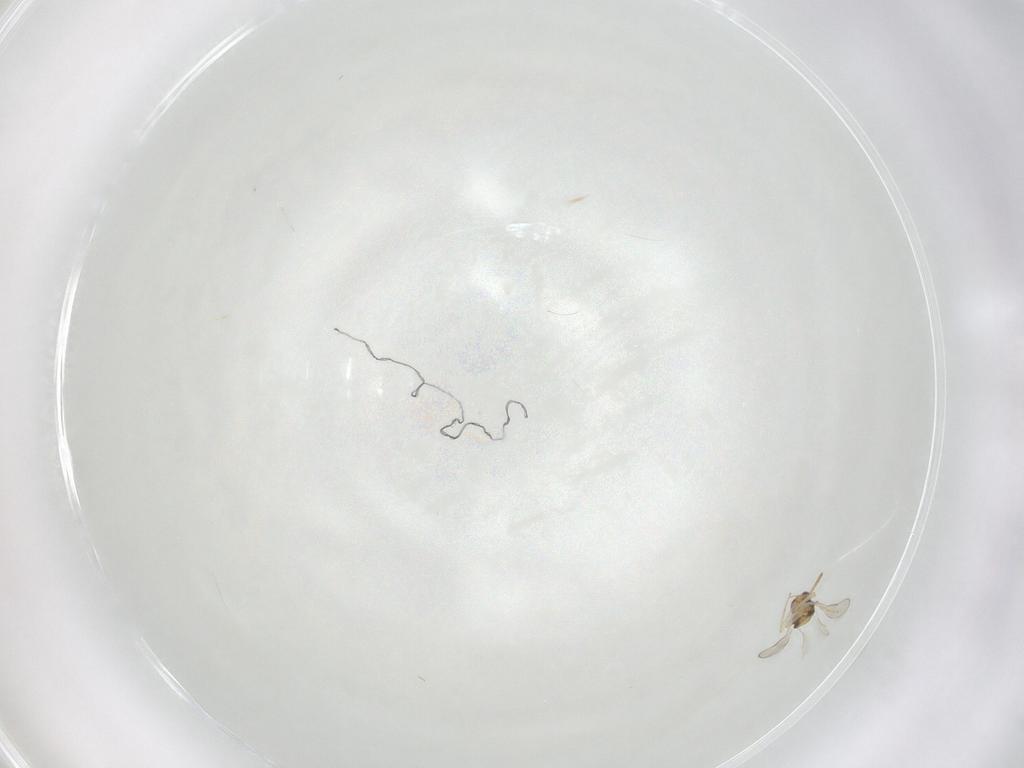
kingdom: Animalia
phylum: Arthropoda
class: Insecta
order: Hymenoptera
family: Aphelinidae
